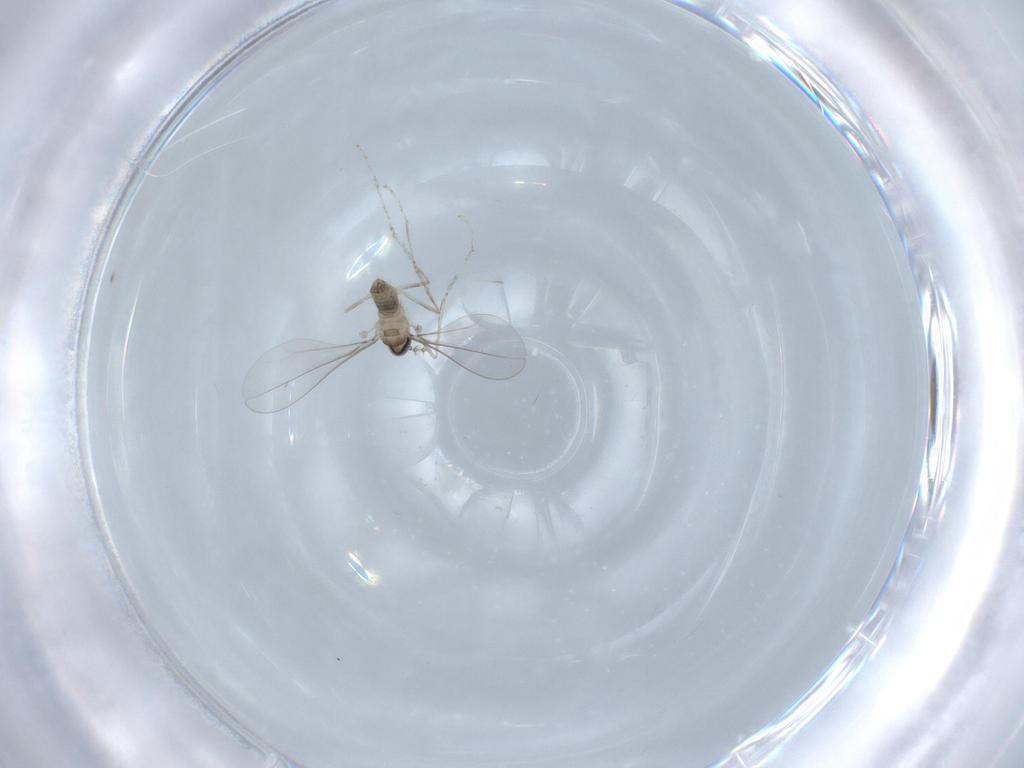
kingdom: Animalia
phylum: Arthropoda
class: Insecta
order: Diptera
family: Cecidomyiidae
